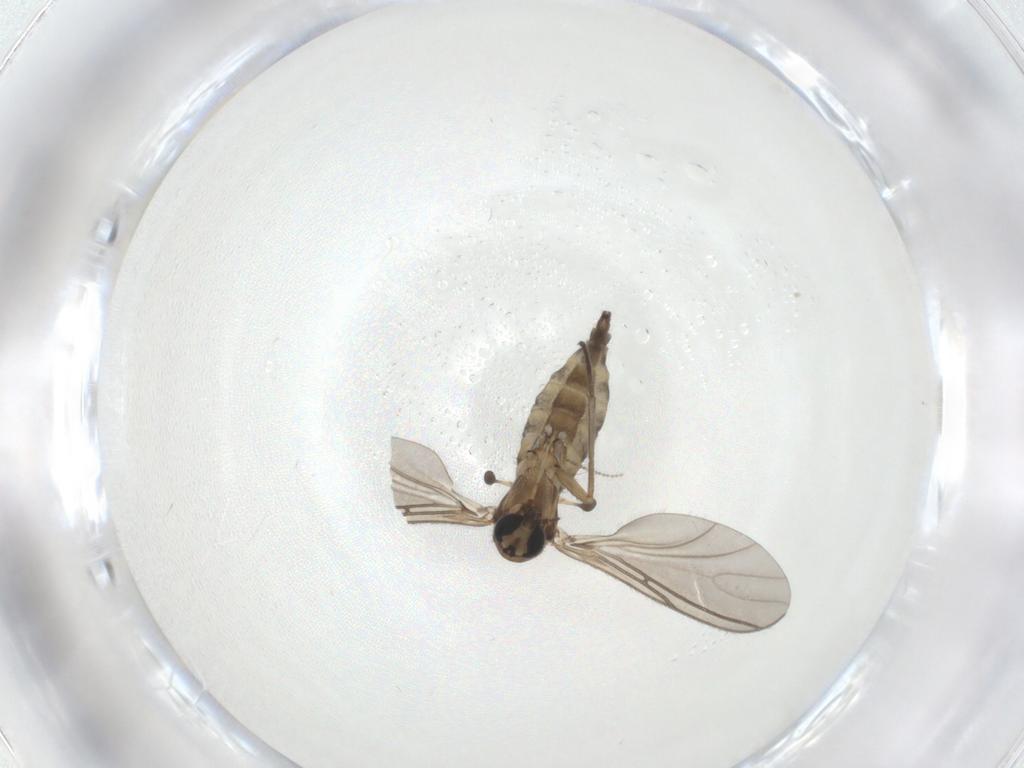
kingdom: Animalia
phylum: Arthropoda
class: Insecta
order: Diptera
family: Sciaridae
